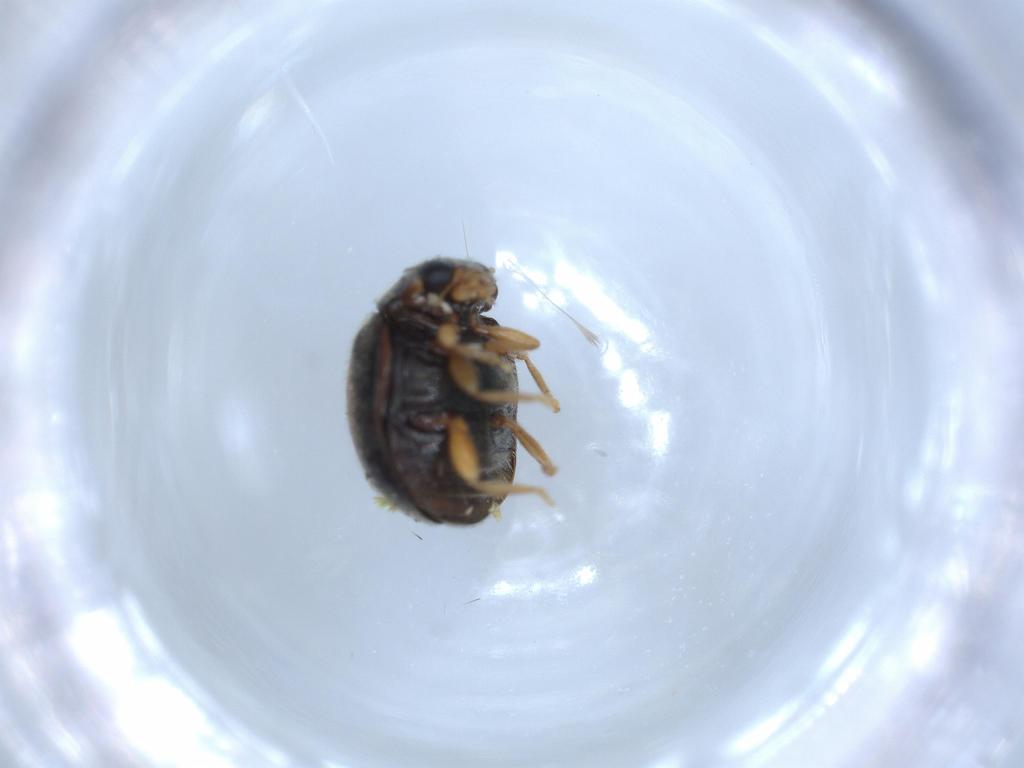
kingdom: Animalia
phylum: Arthropoda
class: Insecta
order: Coleoptera
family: Coccinellidae
